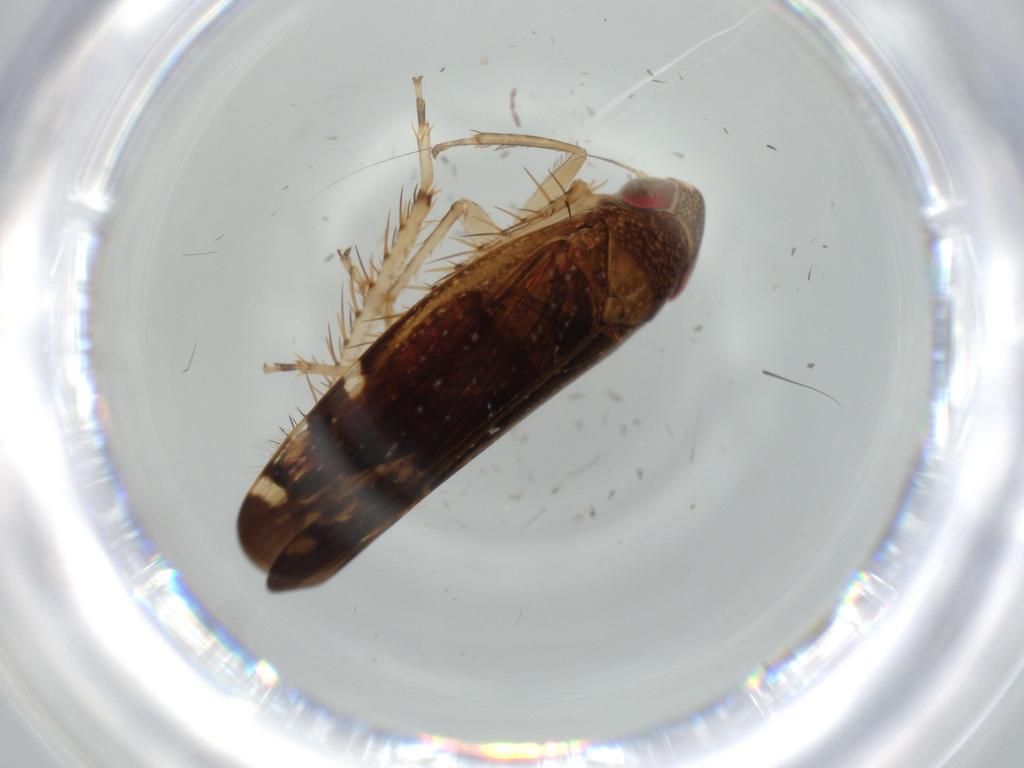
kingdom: Animalia
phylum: Arthropoda
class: Insecta
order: Hemiptera
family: Cicadellidae
